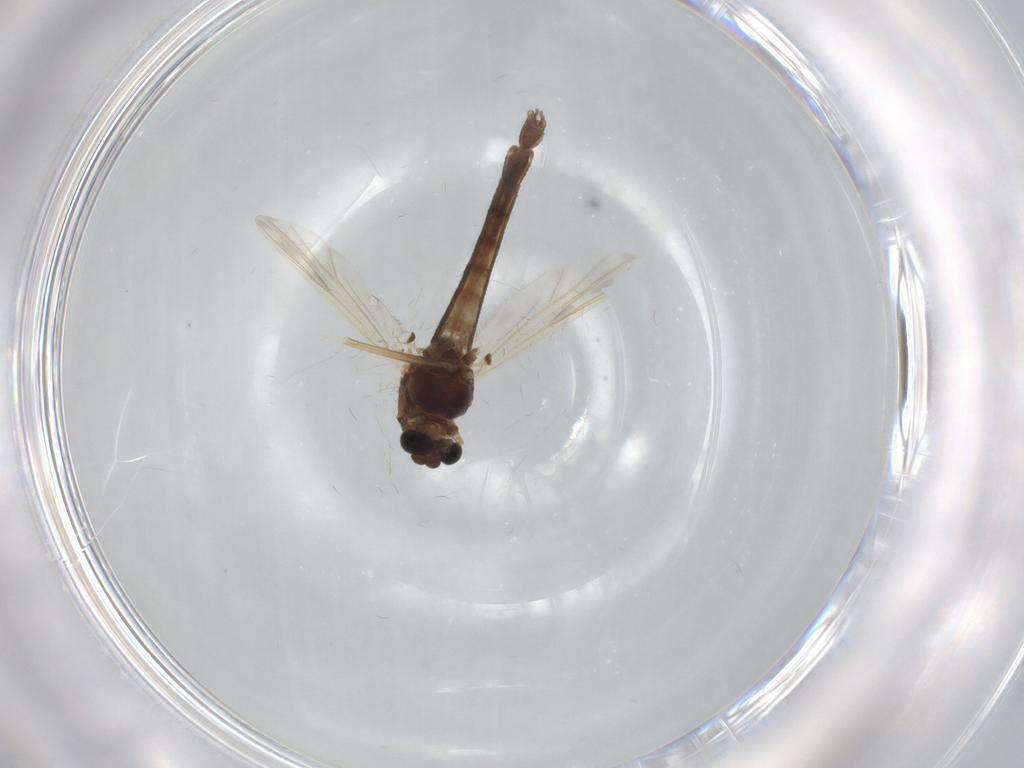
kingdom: Animalia
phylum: Arthropoda
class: Insecta
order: Diptera
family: Chironomidae
